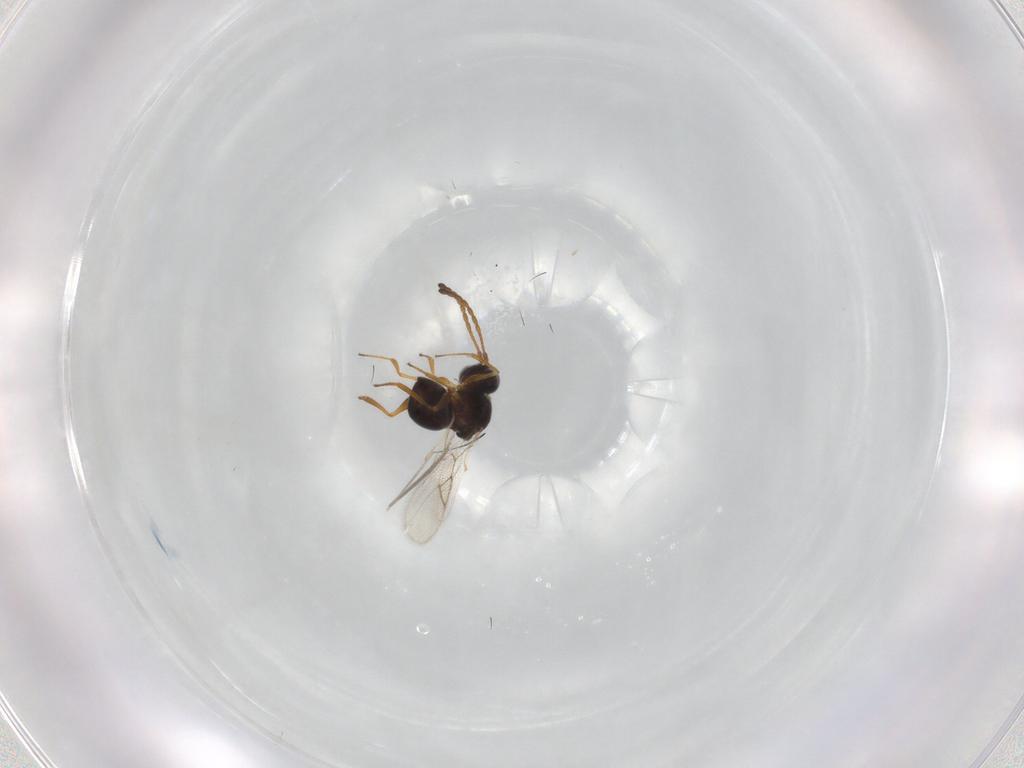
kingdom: Animalia
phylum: Arthropoda
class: Insecta
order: Hymenoptera
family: Figitidae
